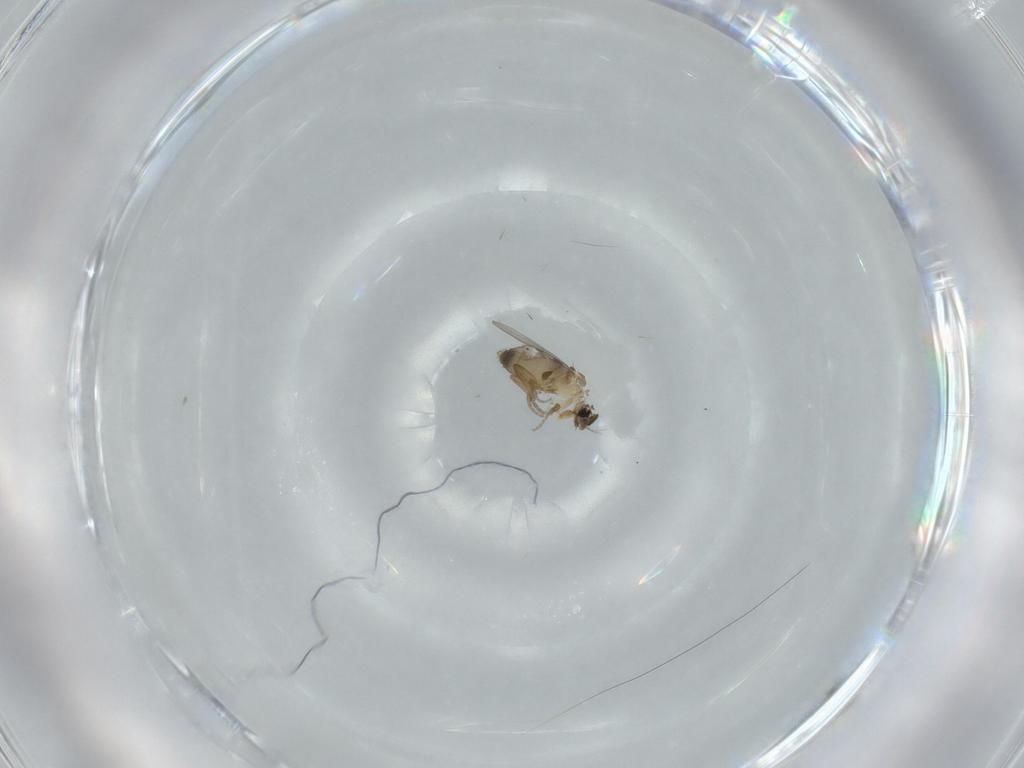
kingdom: Animalia
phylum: Arthropoda
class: Insecta
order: Diptera
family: Phoridae
